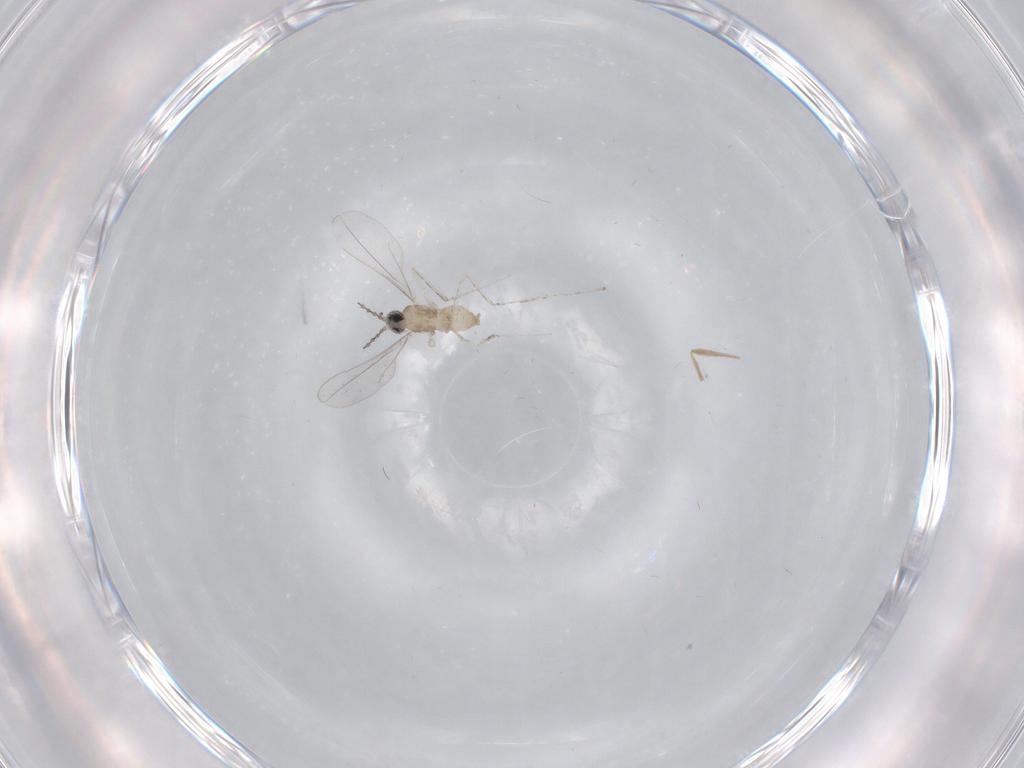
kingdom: Animalia
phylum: Arthropoda
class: Insecta
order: Diptera
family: Cecidomyiidae
